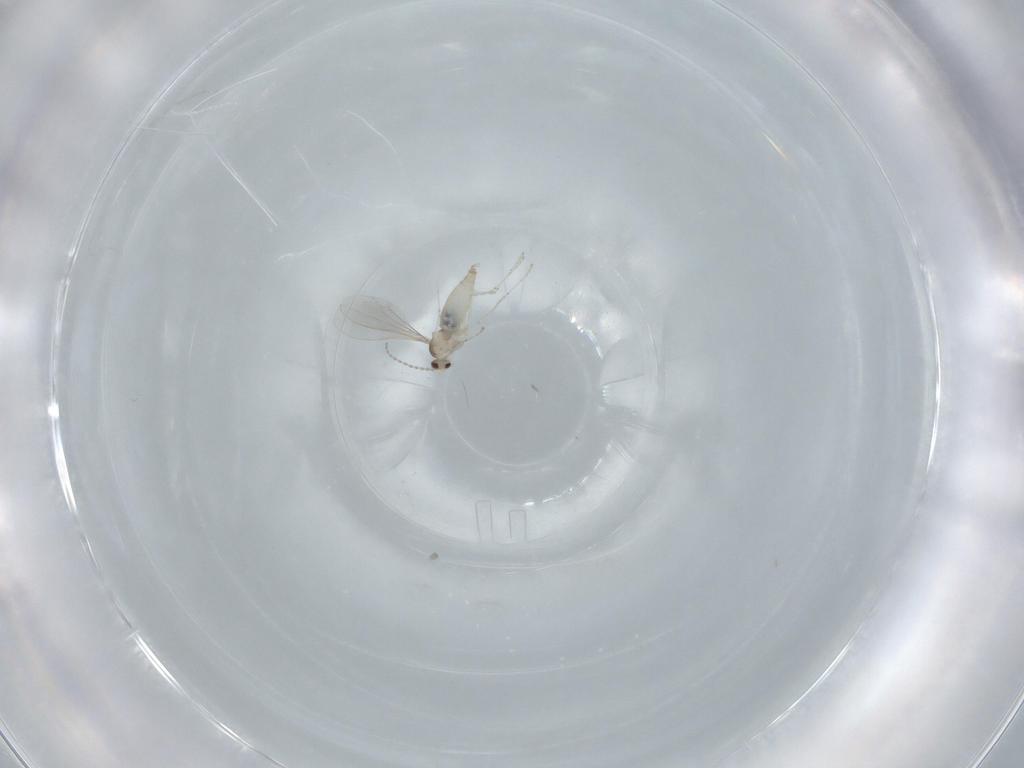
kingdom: Animalia
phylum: Arthropoda
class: Insecta
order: Diptera
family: Cecidomyiidae
